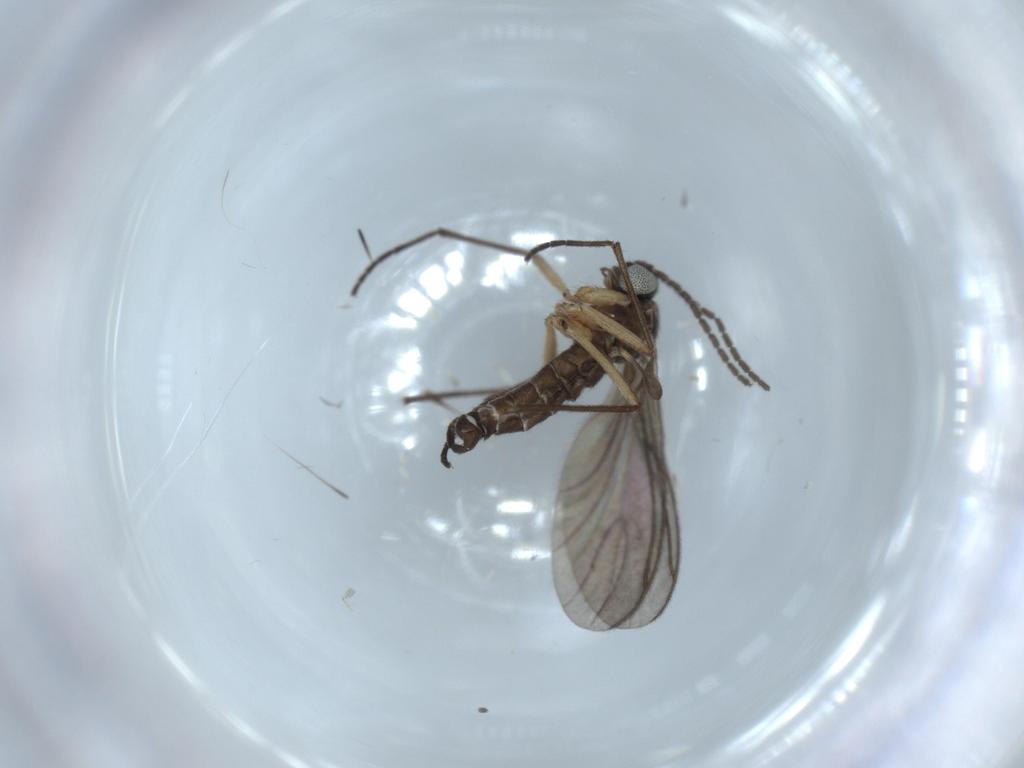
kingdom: Animalia
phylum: Arthropoda
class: Insecta
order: Diptera
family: Sciaridae
